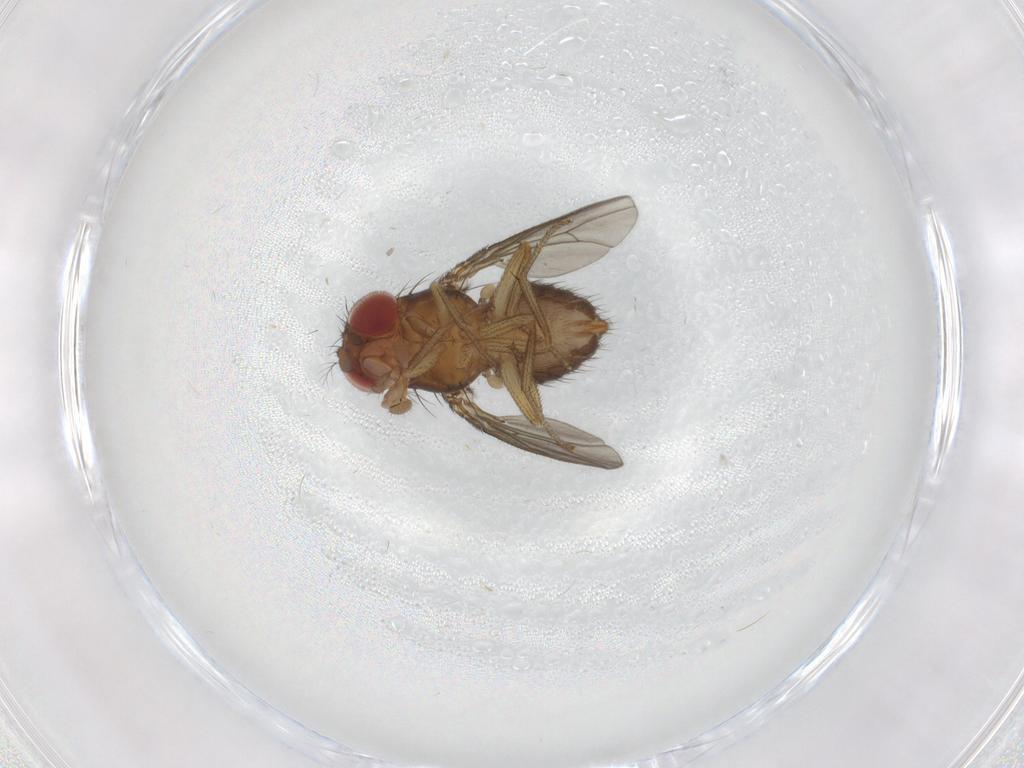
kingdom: Animalia
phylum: Arthropoda
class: Insecta
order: Diptera
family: Drosophilidae
